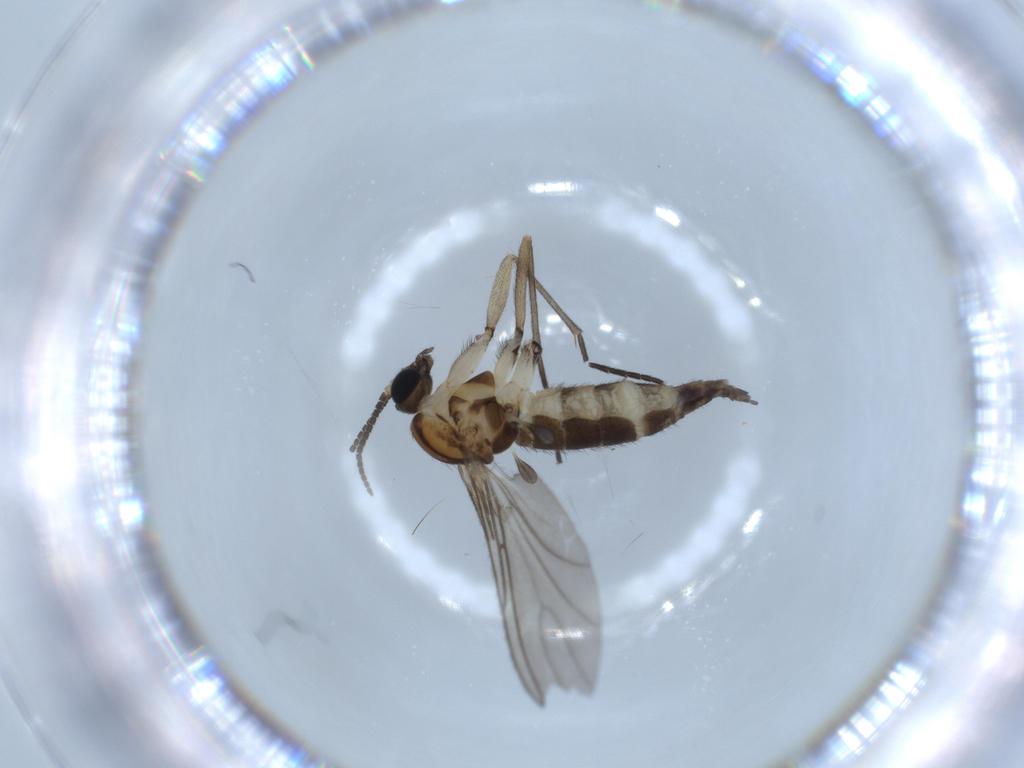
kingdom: Animalia
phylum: Arthropoda
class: Insecta
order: Diptera
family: Sciaridae
